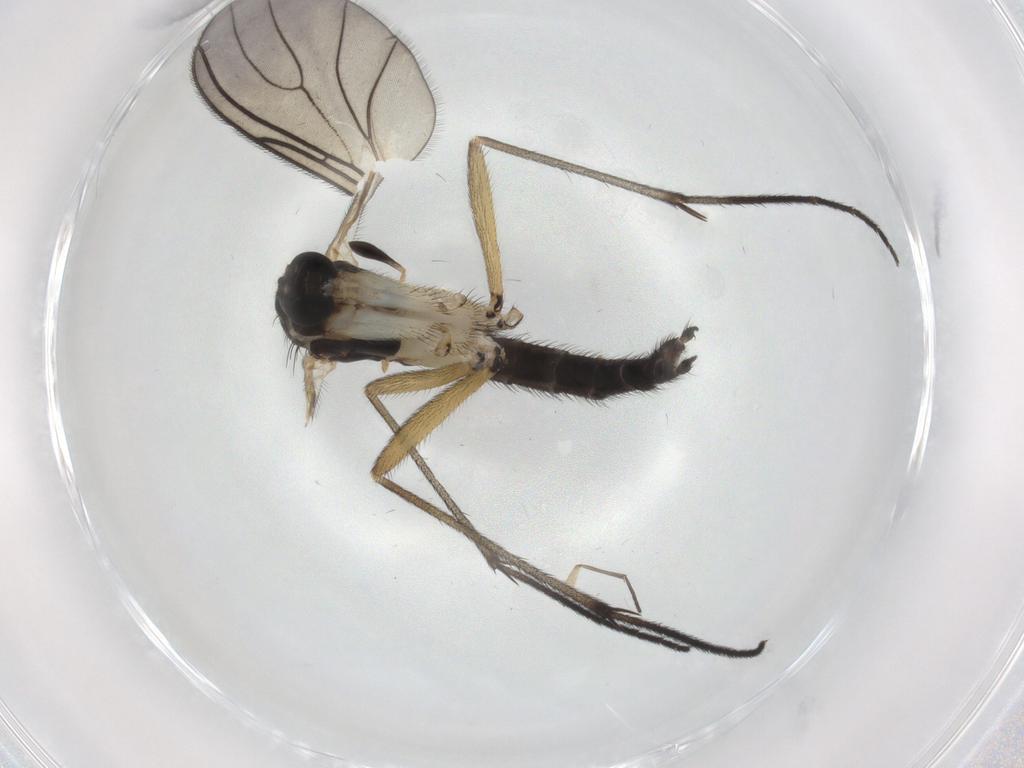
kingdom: Animalia
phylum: Arthropoda
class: Insecta
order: Diptera
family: Sciaridae
